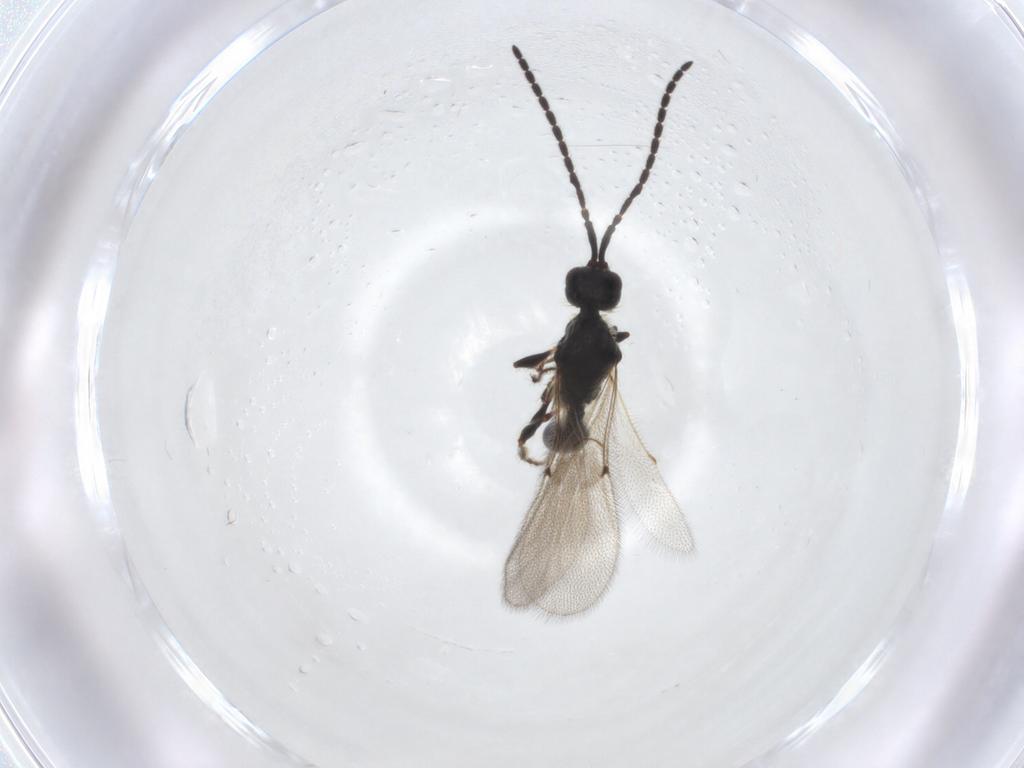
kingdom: Animalia
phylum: Arthropoda
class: Insecta
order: Hymenoptera
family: Diapriidae
